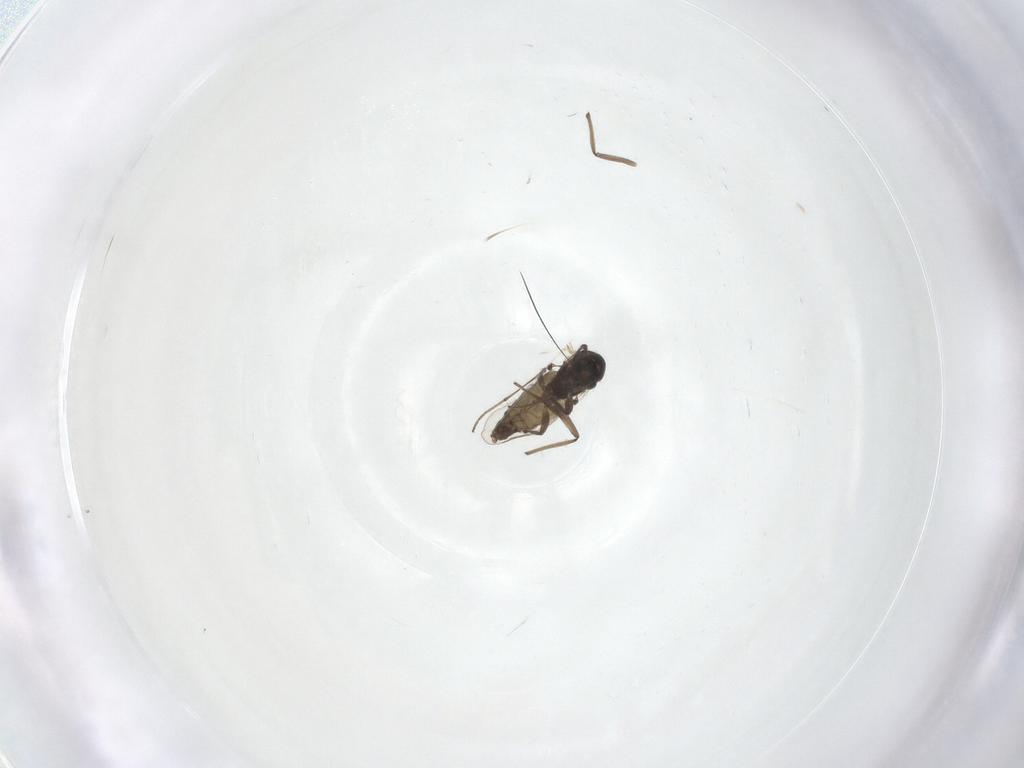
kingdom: Animalia
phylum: Arthropoda
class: Insecta
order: Diptera
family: Chironomidae
